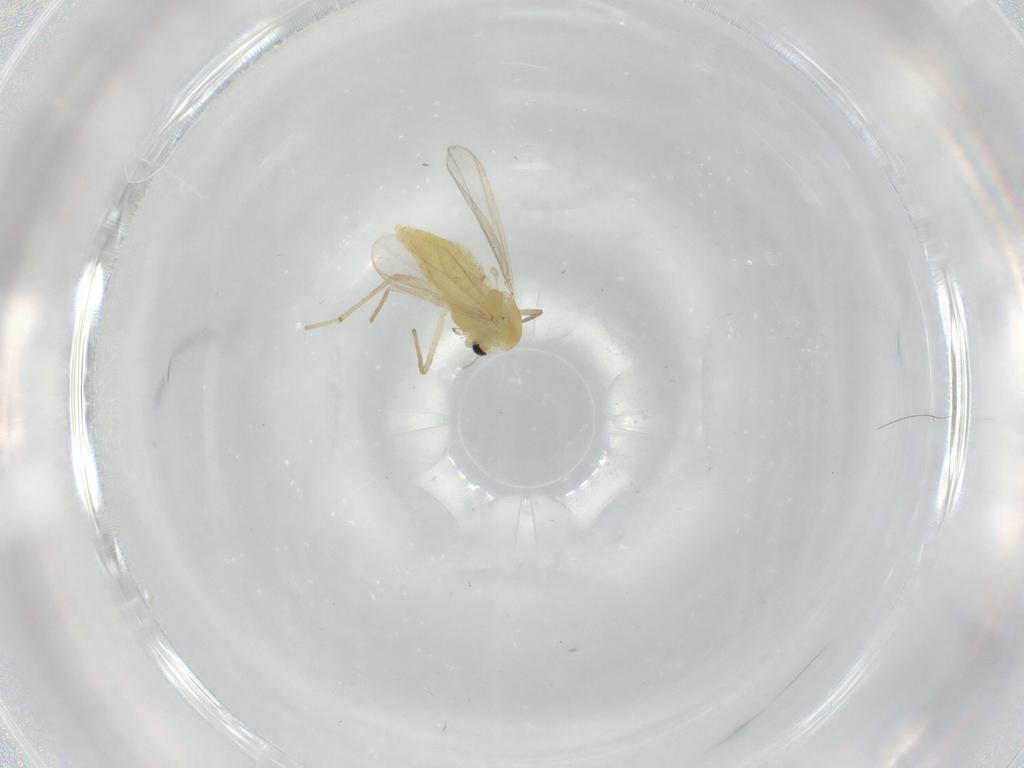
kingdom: Animalia
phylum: Arthropoda
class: Insecta
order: Diptera
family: Chironomidae
